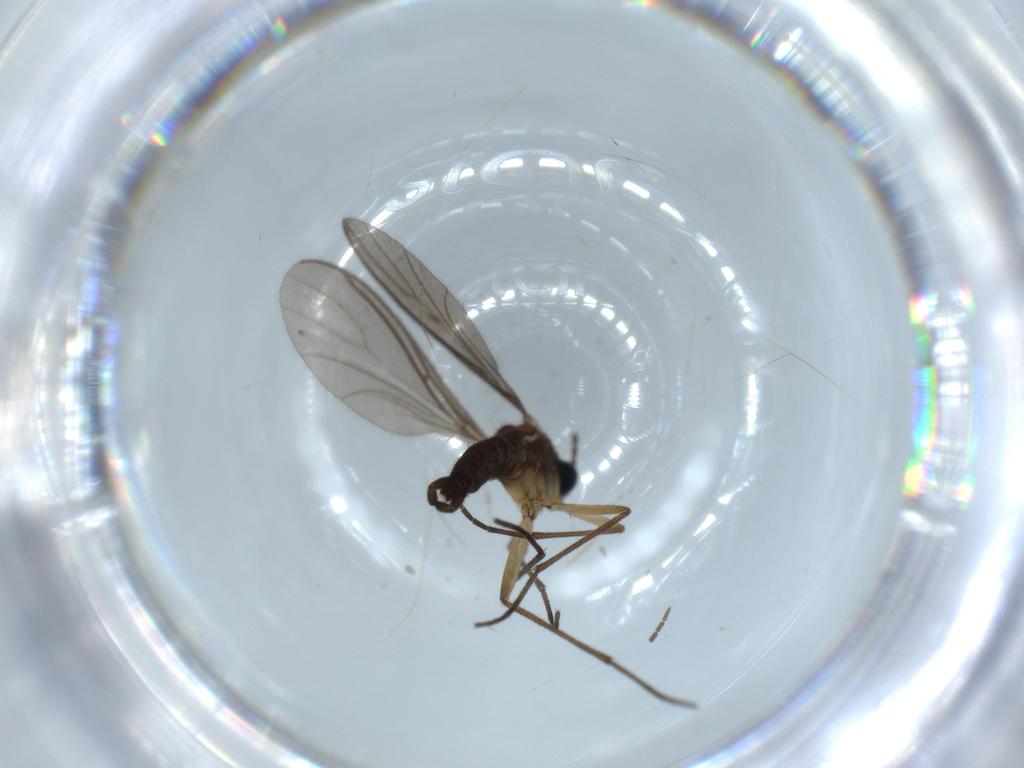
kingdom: Animalia
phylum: Arthropoda
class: Insecta
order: Diptera
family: Sciaridae
